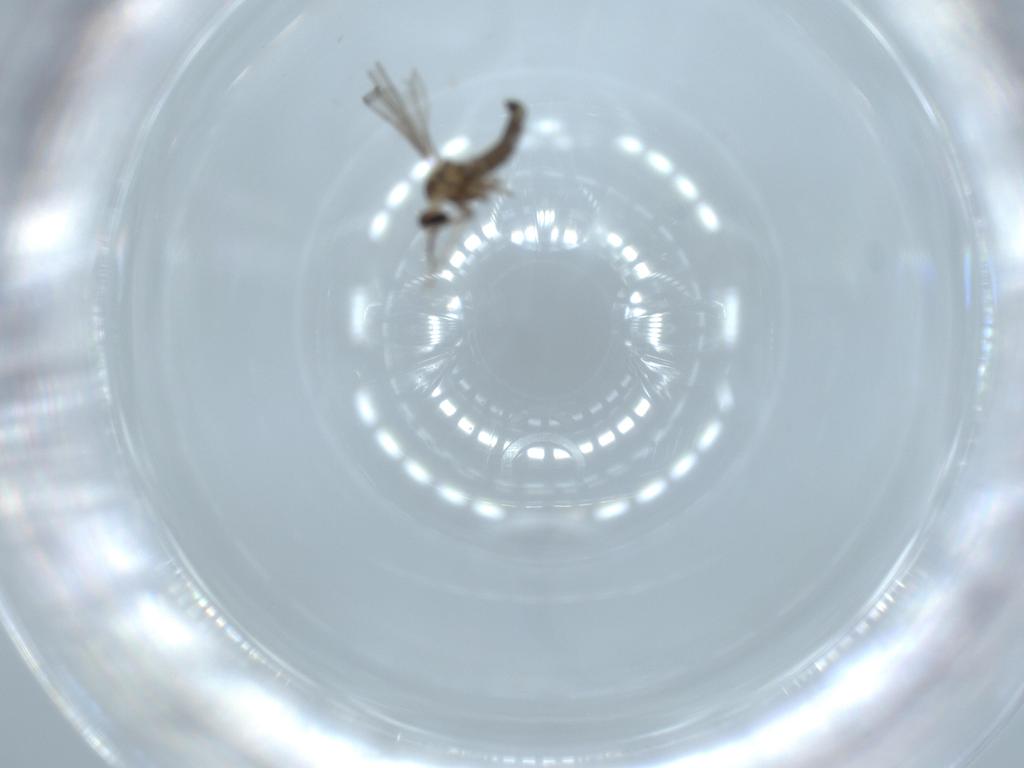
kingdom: Animalia
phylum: Arthropoda
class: Insecta
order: Diptera
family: Cecidomyiidae
